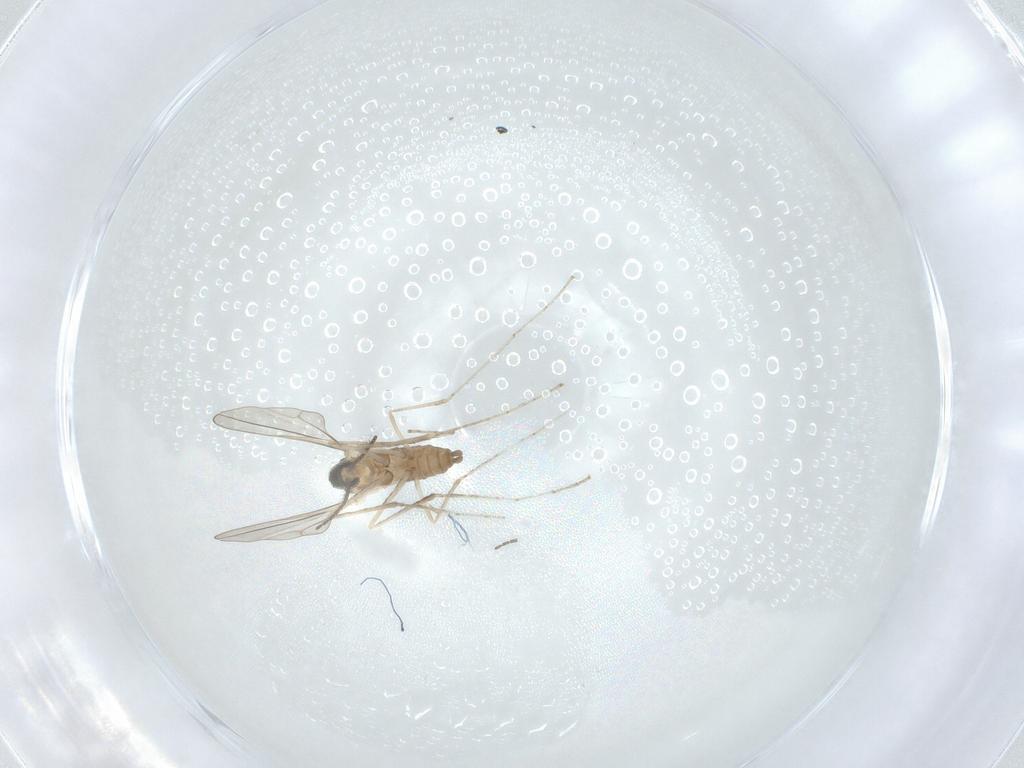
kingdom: Animalia
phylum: Arthropoda
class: Insecta
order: Diptera
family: Cecidomyiidae
